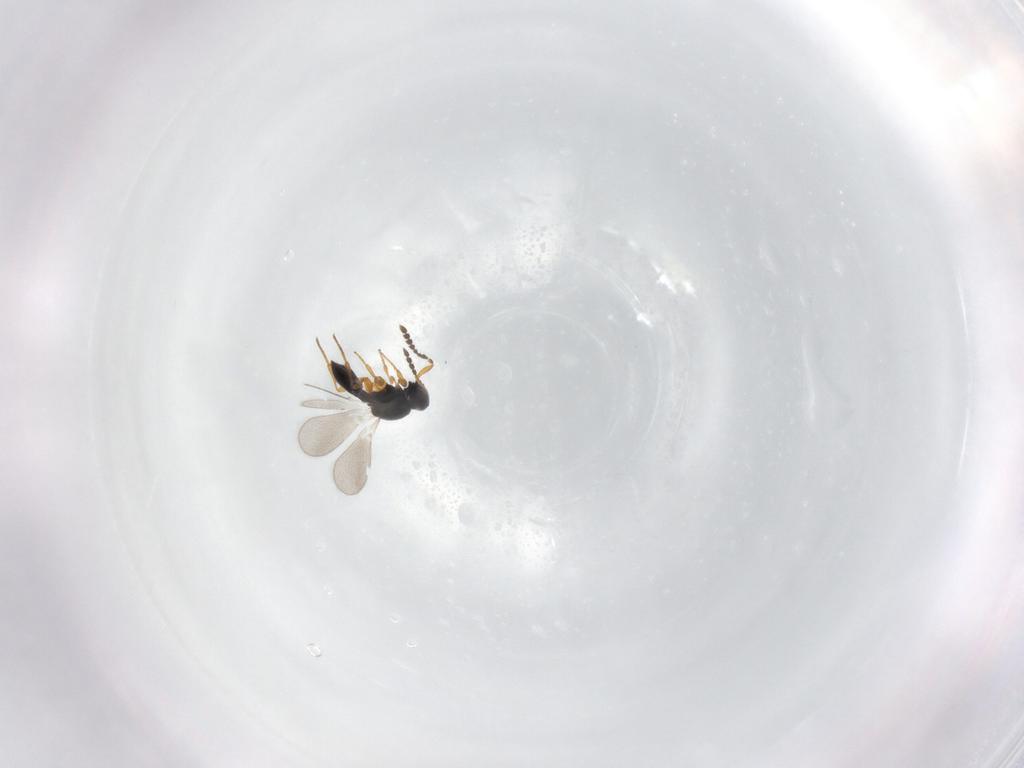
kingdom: Animalia
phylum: Arthropoda
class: Insecta
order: Hymenoptera
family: Platygastridae
